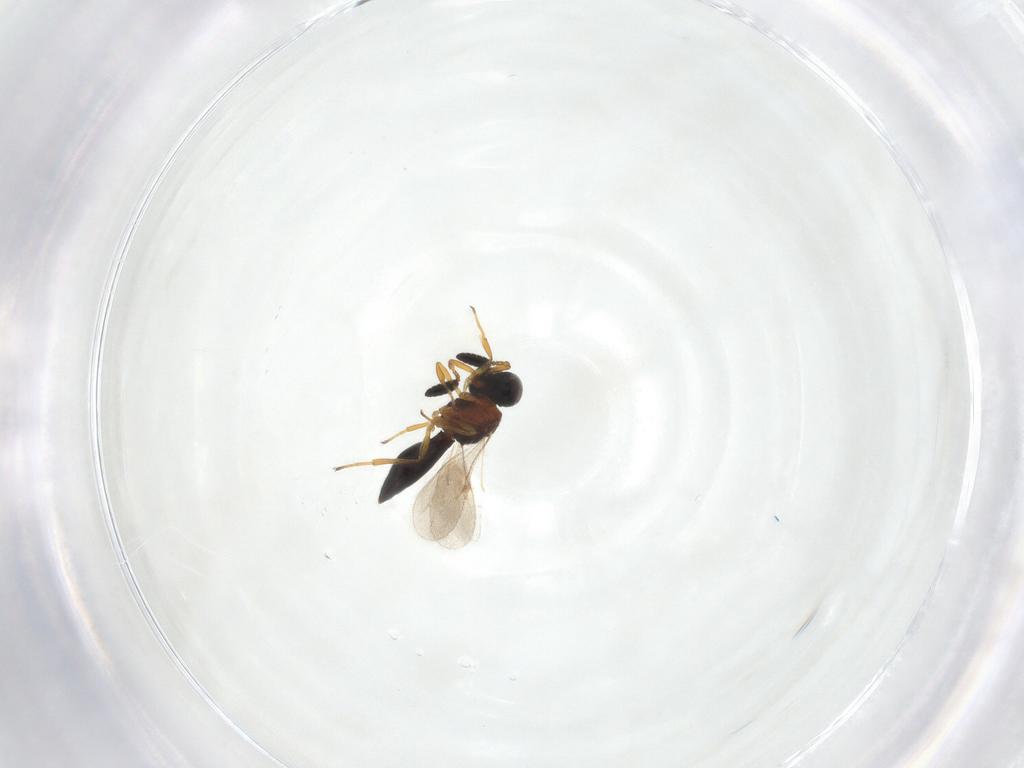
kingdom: Animalia
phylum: Arthropoda
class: Insecta
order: Hymenoptera
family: Scelionidae
